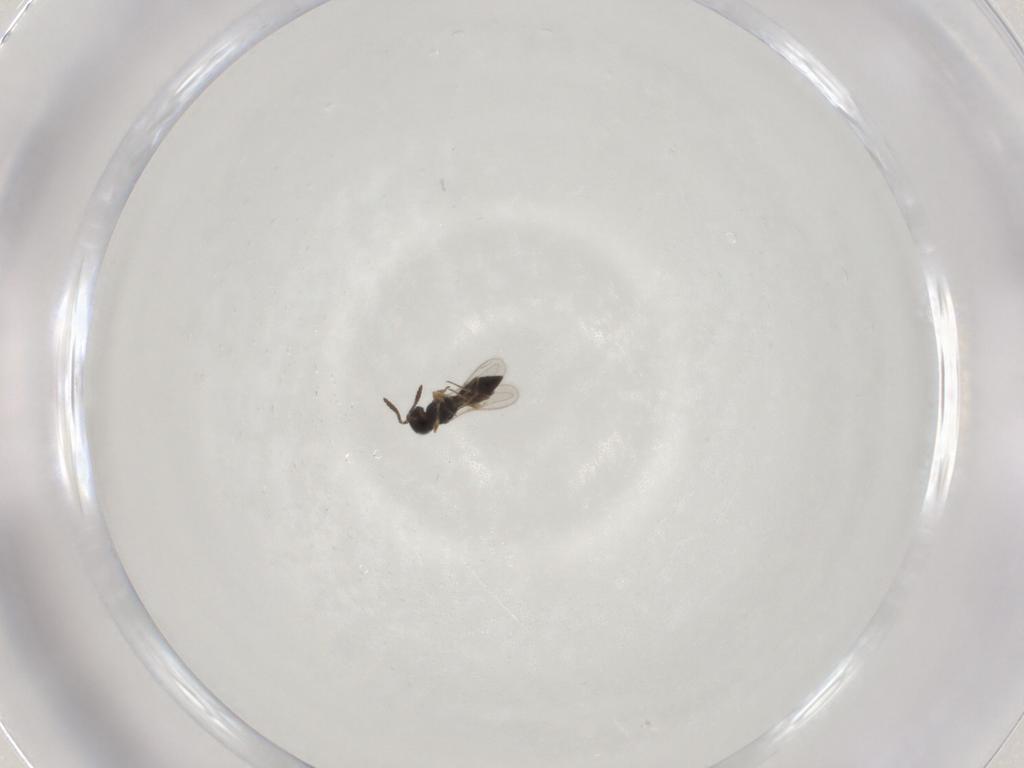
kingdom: Animalia
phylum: Arthropoda
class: Insecta
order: Hymenoptera
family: Scelionidae
